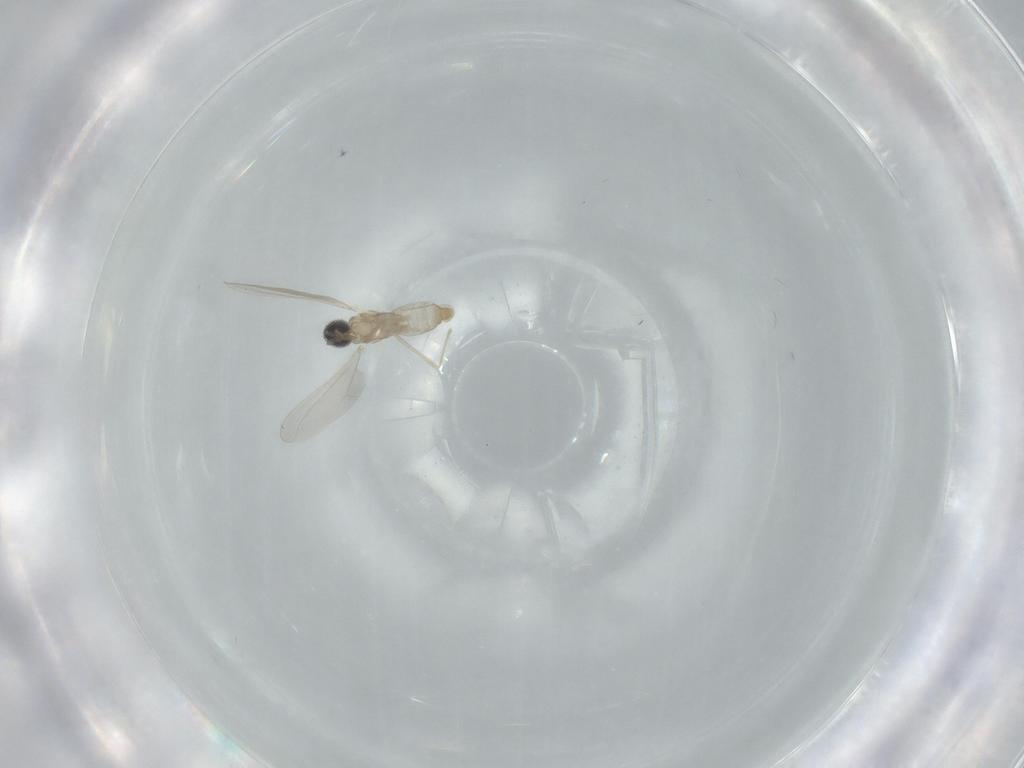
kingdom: Animalia
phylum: Arthropoda
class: Insecta
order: Diptera
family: Cecidomyiidae
